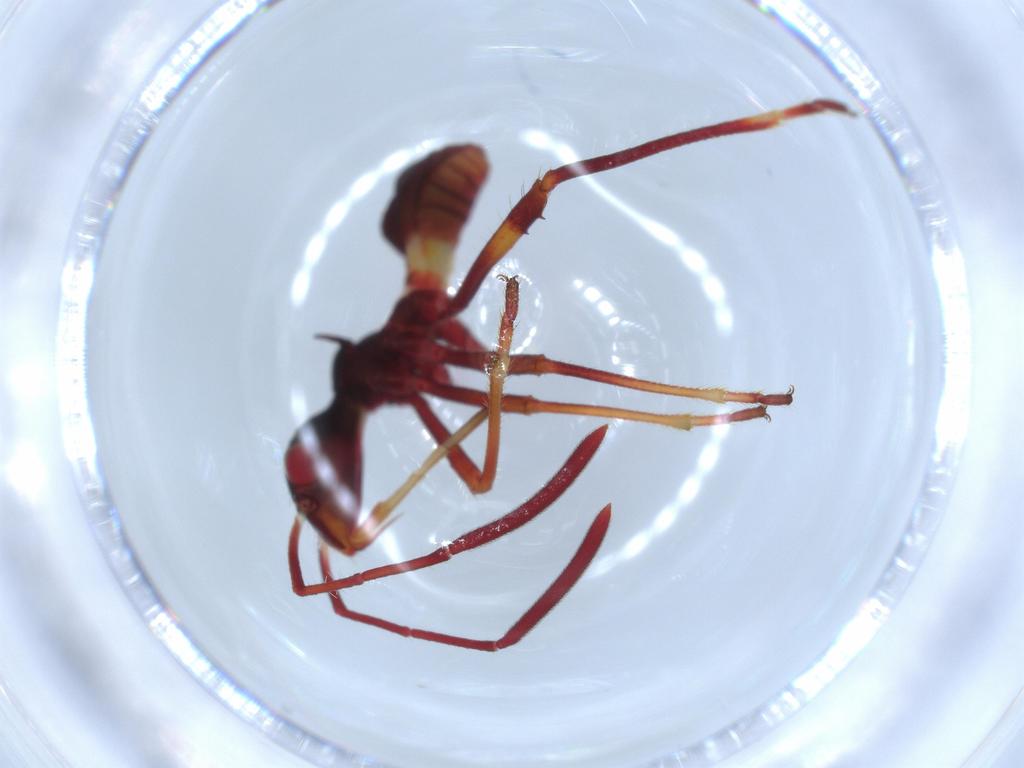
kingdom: Animalia
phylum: Arthropoda
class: Insecta
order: Hemiptera
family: Alydidae
